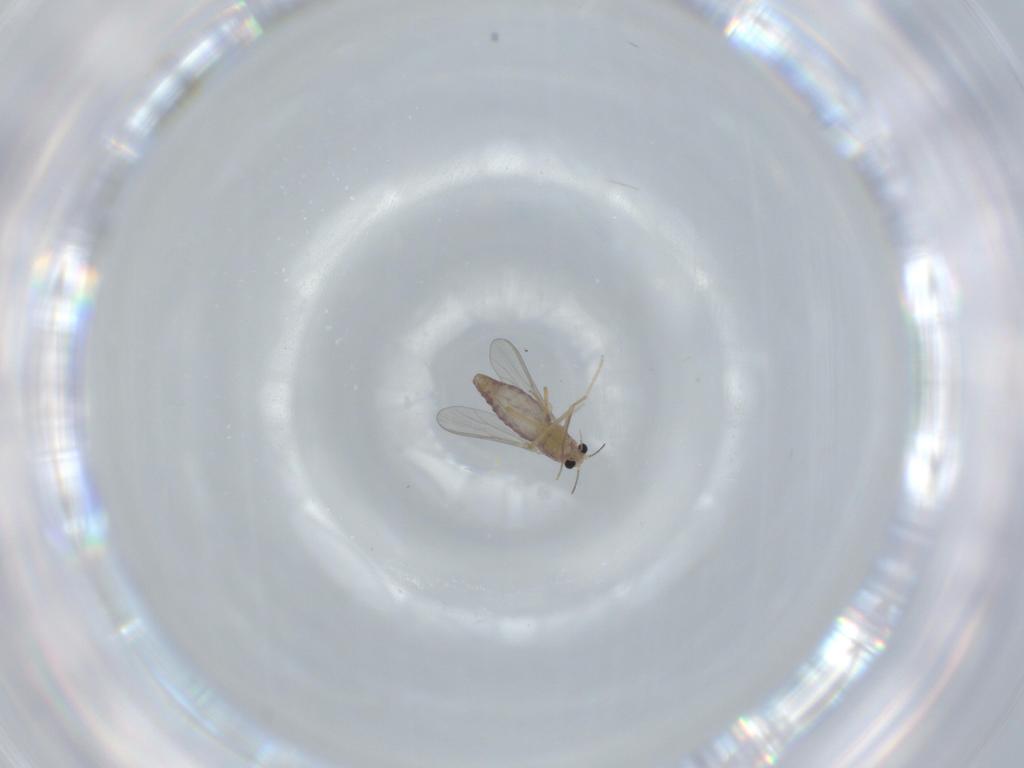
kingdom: Animalia
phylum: Arthropoda
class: Insecta
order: Diptera
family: Chironomidae
